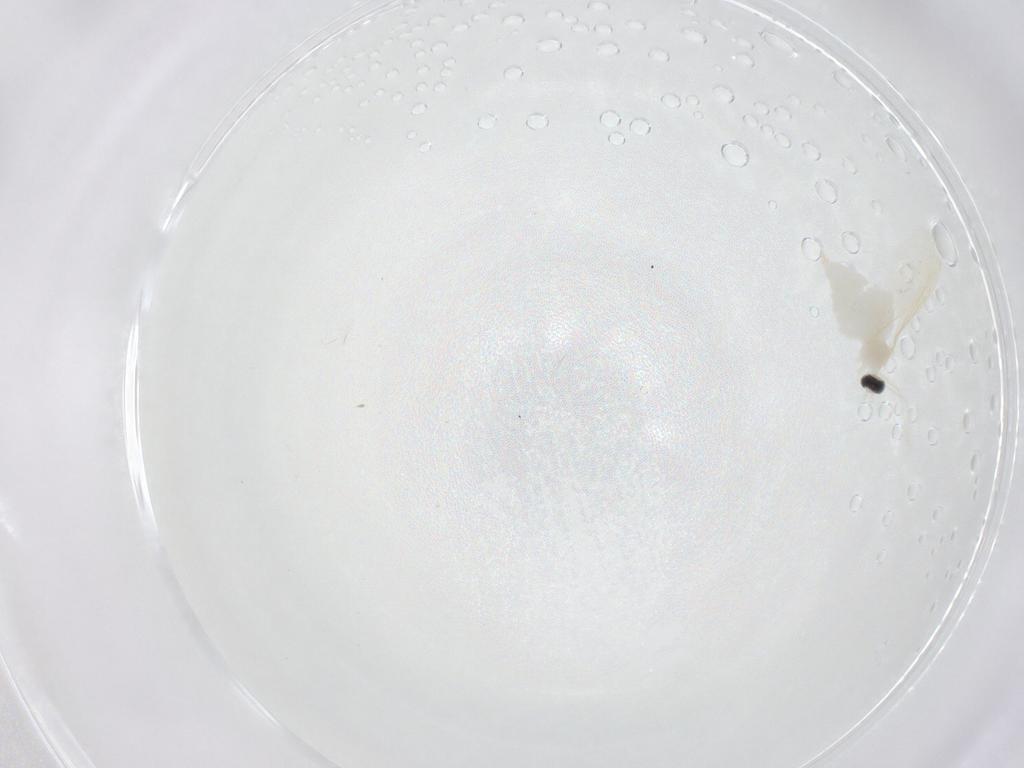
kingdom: Animalia
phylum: Arthropoda
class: Insecta
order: Diptera
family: Cecidomyiidae
